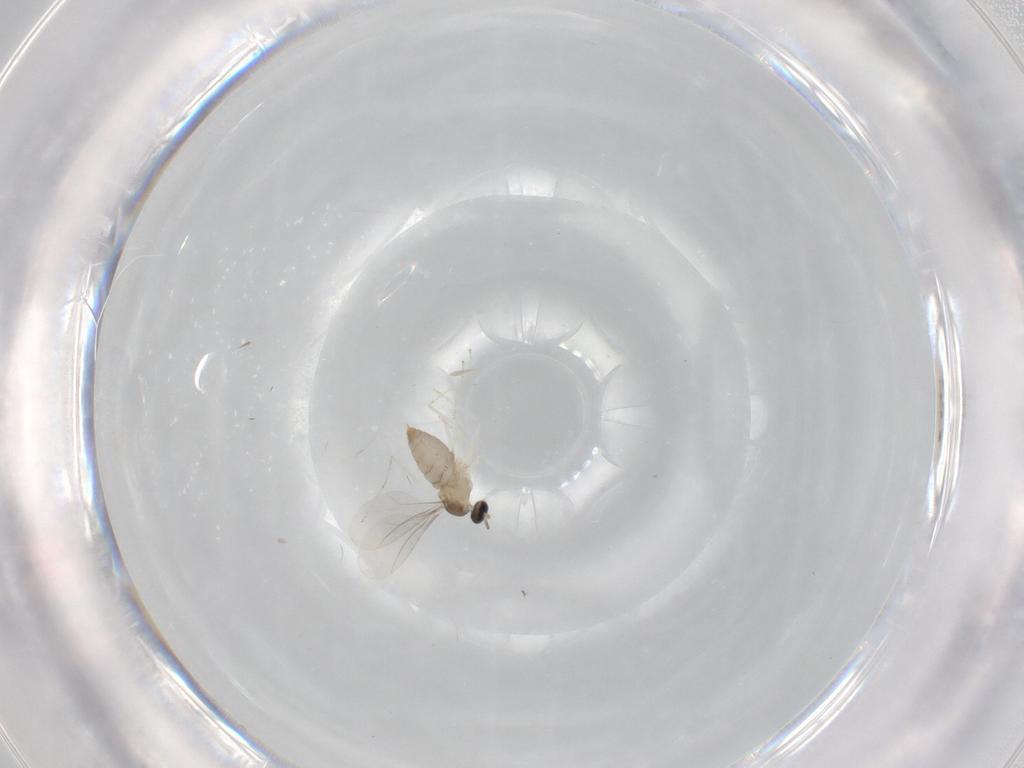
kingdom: Animalia
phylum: Arthropoda
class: Insecta
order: Diptera
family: Cecidomyiidae
